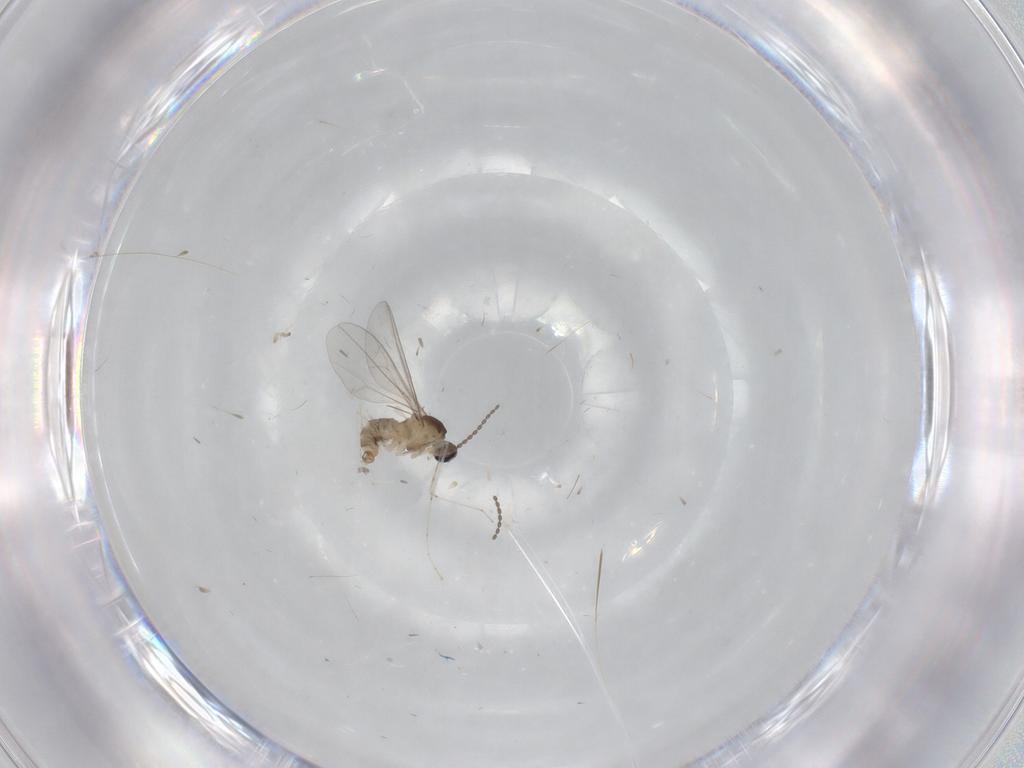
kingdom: Animalia
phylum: Arthropoda
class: Insecta
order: Diptera
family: Cecidomyiidae
